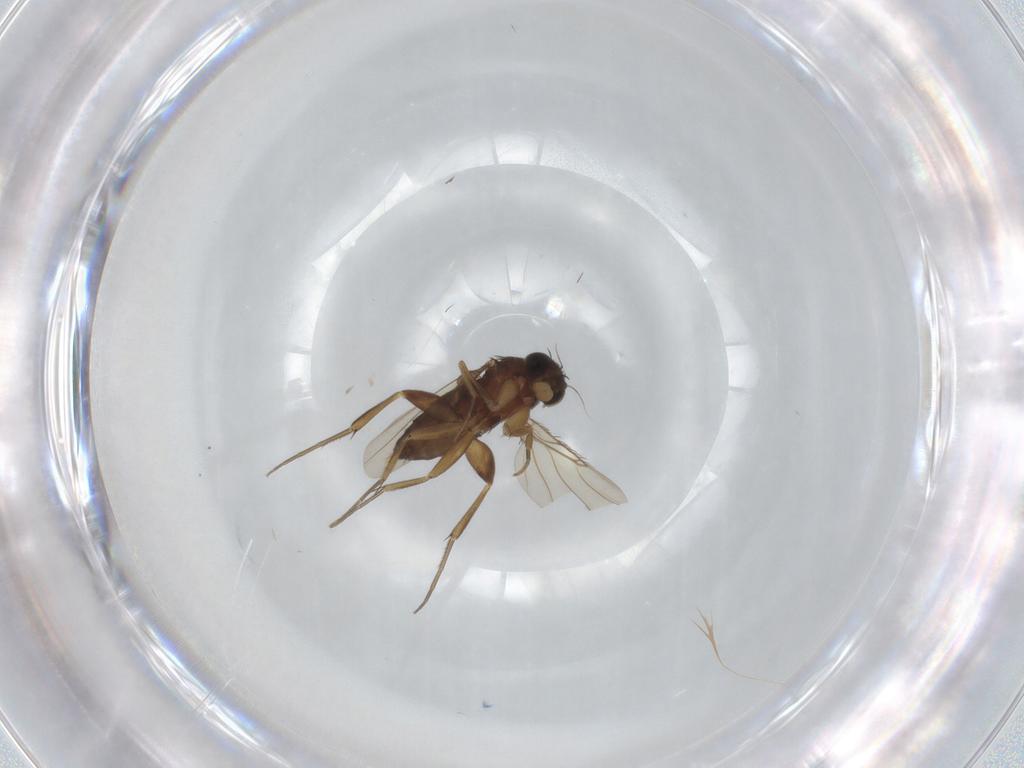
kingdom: Animalia
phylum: Arthropoda
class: Insecta
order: Diptera
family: Phoridae
